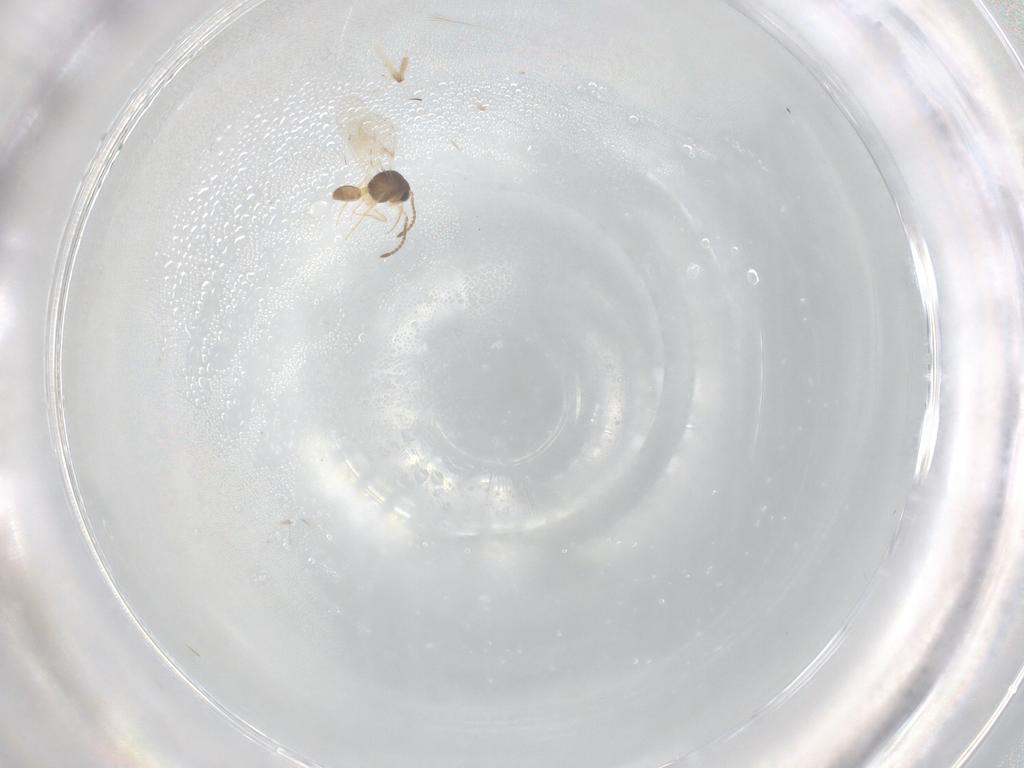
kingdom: Animalia
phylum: Arthropoda
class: Insecta
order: Hymenoptera
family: Scelionidae
